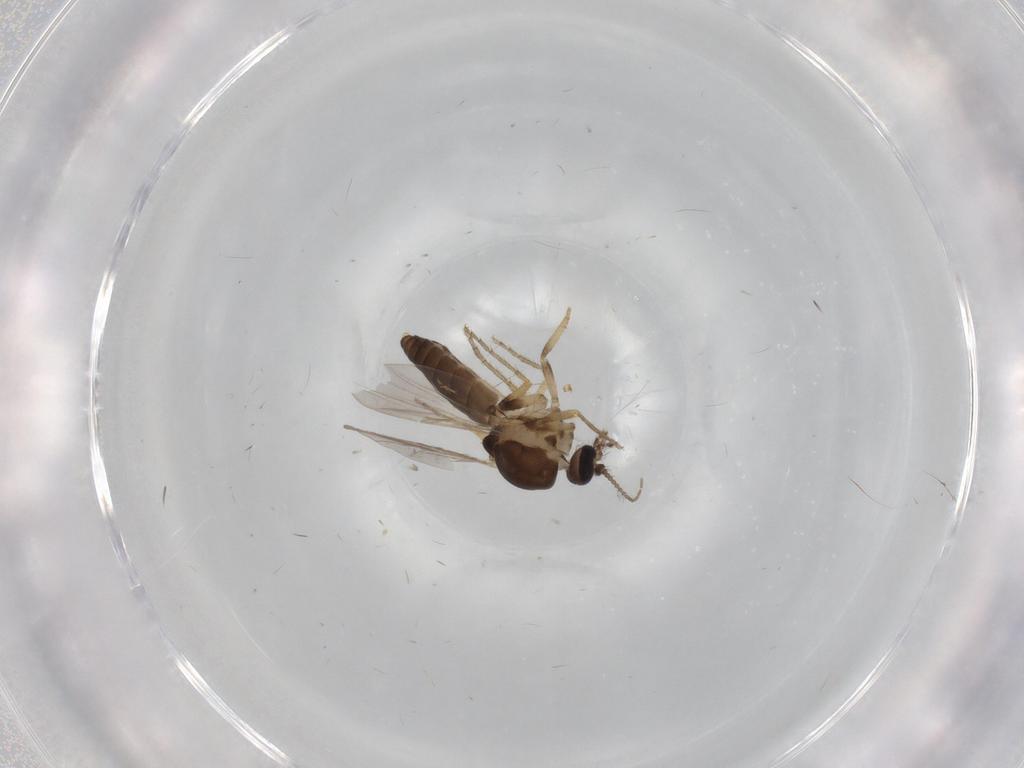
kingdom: Animalia
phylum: Arthropoda
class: Insecta
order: Diptera
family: Ceratopogonidae
